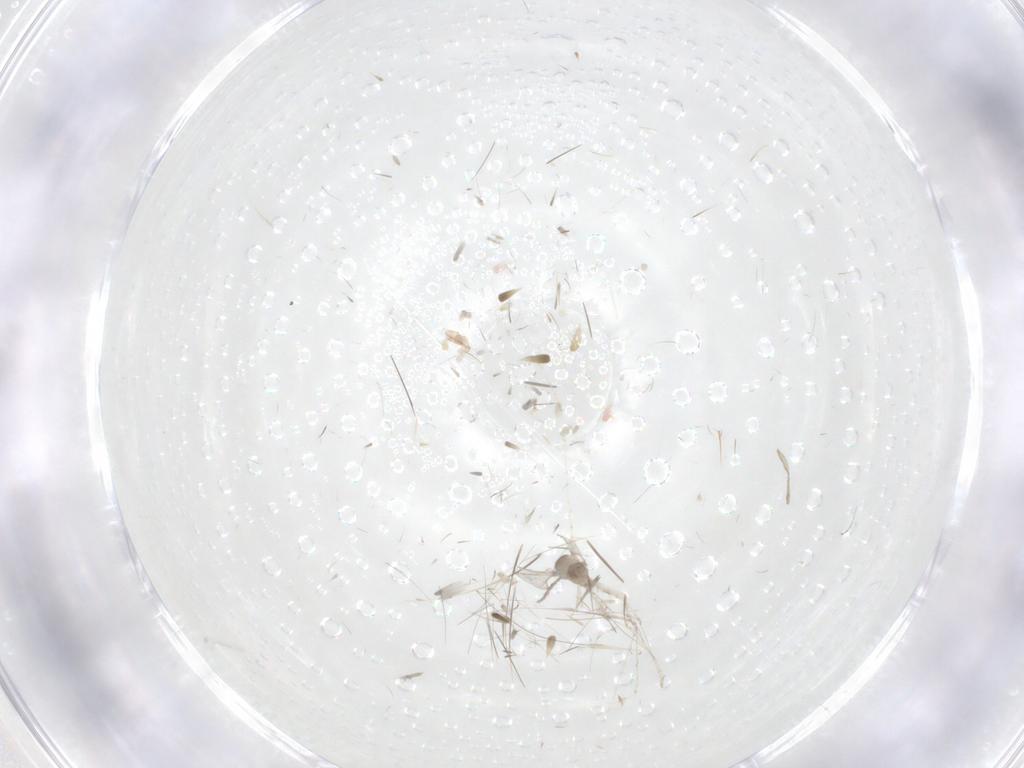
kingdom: Animalia
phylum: Arthropoda
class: Insecta
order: Diptera
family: Cecidomyiidae
